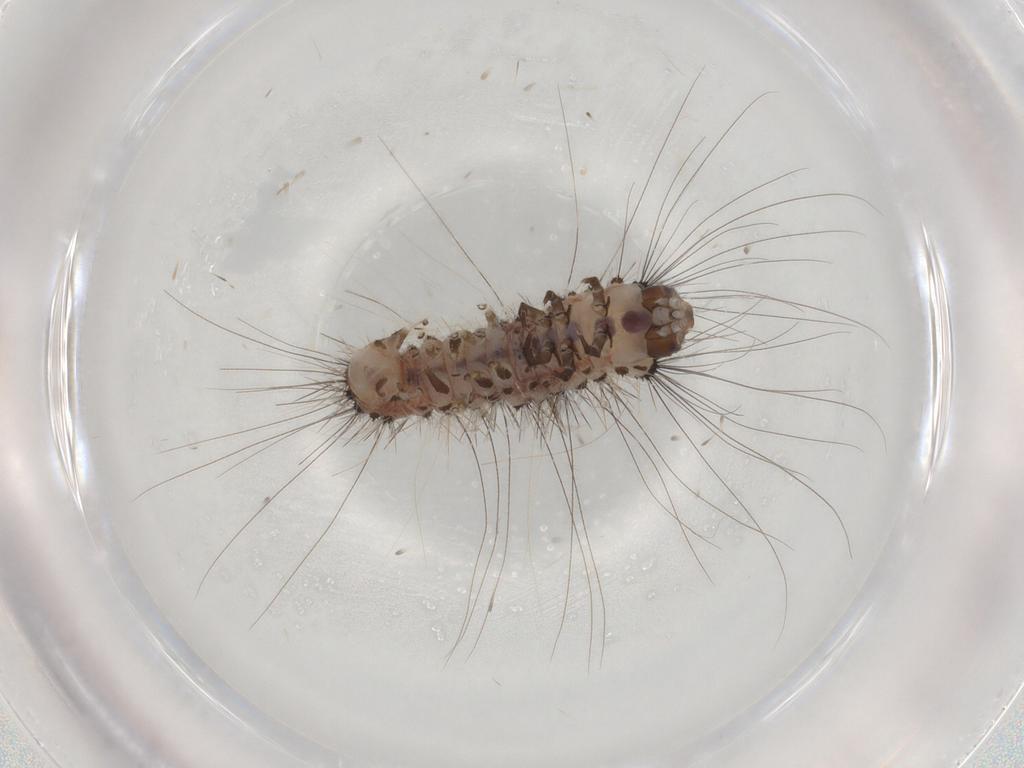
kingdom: Animalia
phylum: Arthropoda
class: Insecta
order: Lepidoptera
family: Scythrididae
